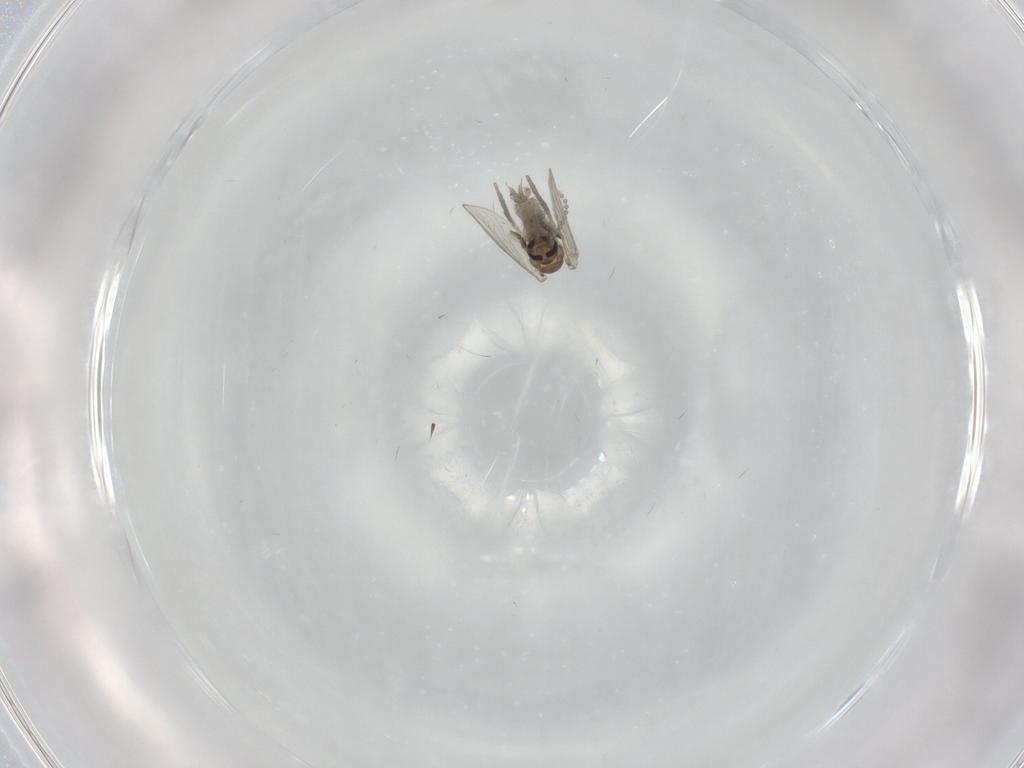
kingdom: Animalia
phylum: Arthropoda
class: Insecta
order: Diptera
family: Psychodidae
